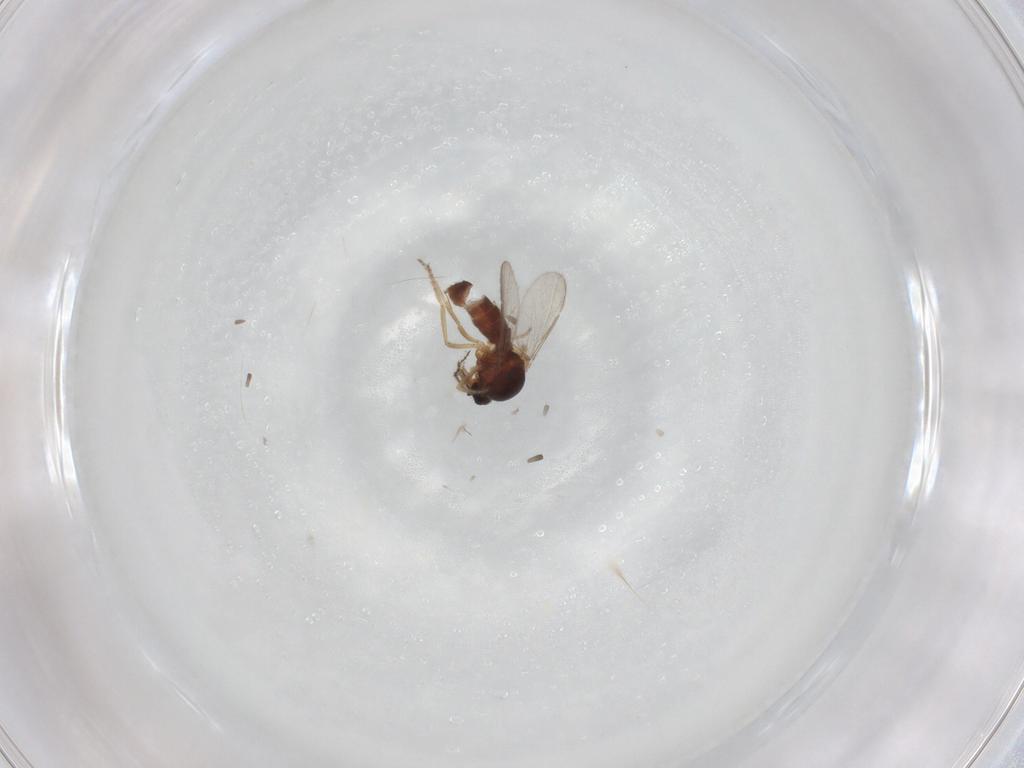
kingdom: Animalia
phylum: Arthropoda
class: Insecta
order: Diptera
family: Ceratopogonidae
